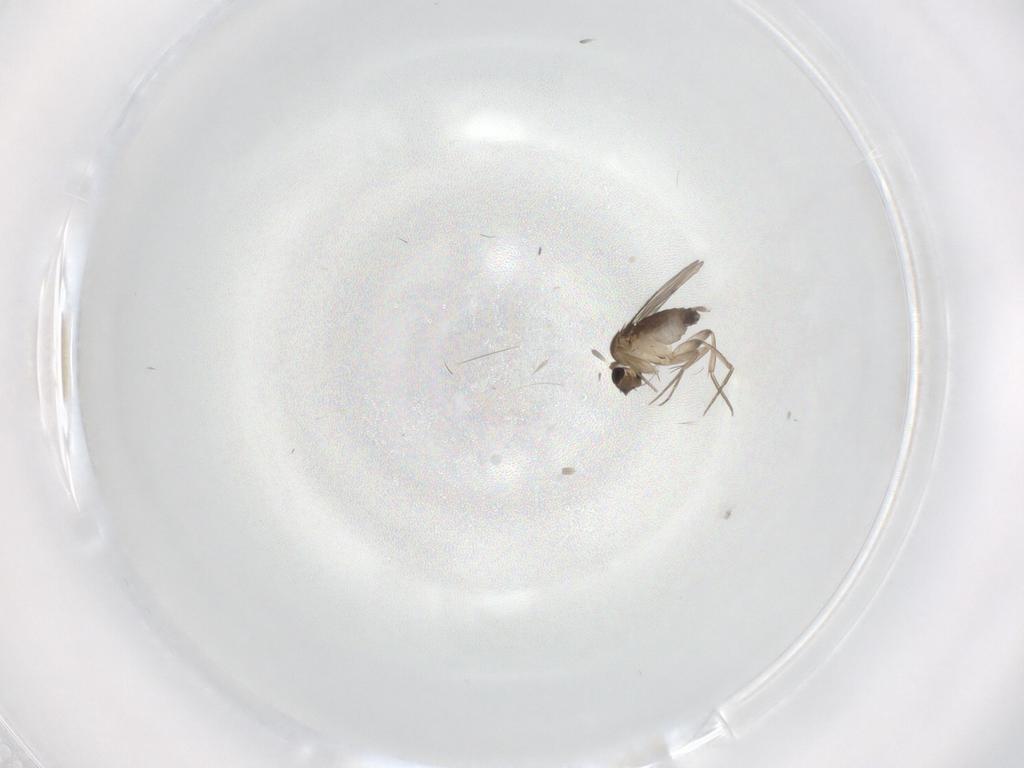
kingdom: Animalia
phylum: Arthropoda
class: Insecta
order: Diptera
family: Phoridae
